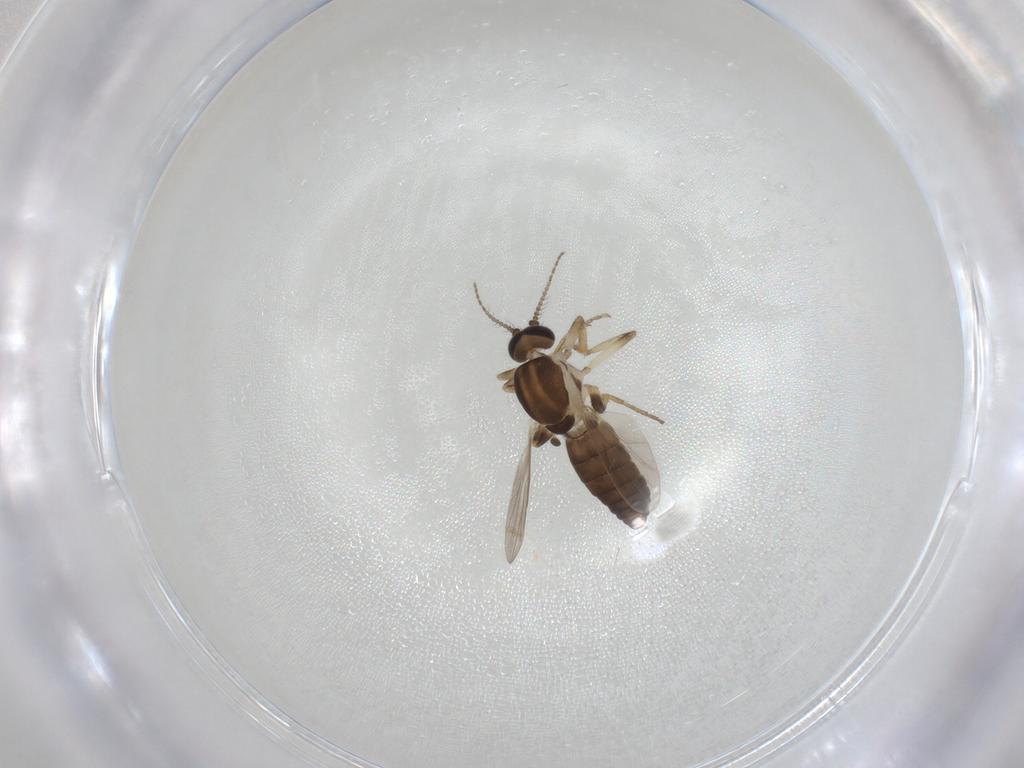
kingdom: Animalia
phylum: Arthropoda
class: Insecta
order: Diptera
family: Ceratopogonidae
